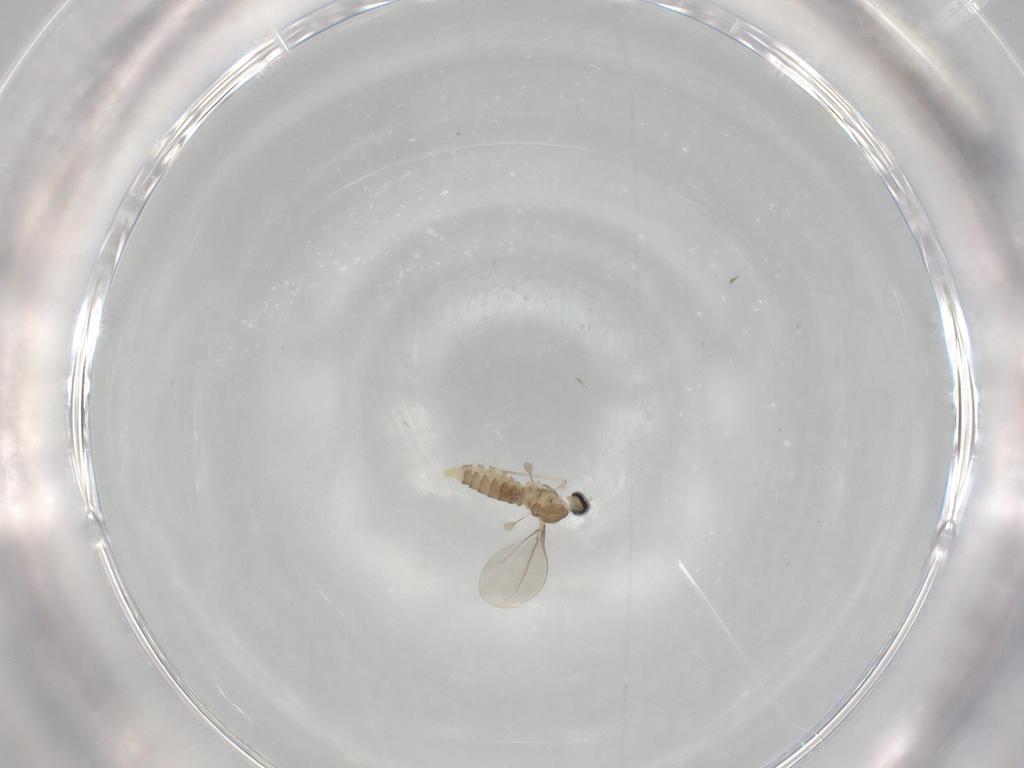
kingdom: Animalia
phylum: Arthropoda
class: Insecta
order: Diptera
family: Cecidomyiidae
